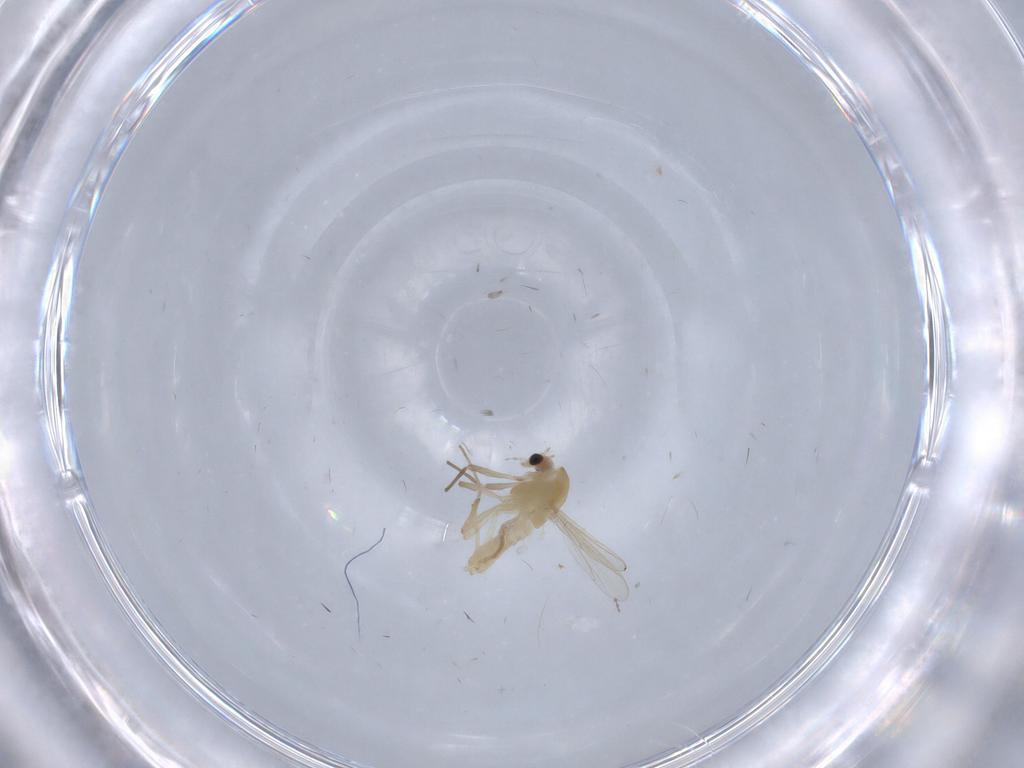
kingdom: Animalia
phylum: Arthropoda
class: Insecta
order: Diptera
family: Chironomidae
